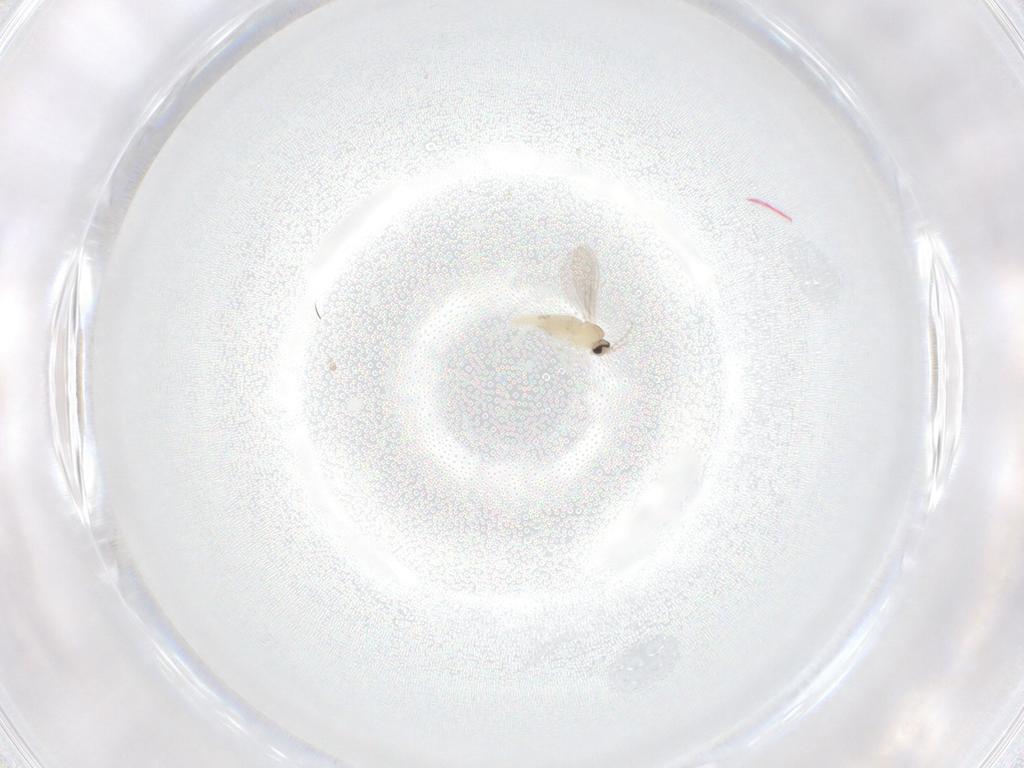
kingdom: Animalia
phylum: Arthropoda
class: Insecta
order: Diptera
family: Cecidomyiidae
